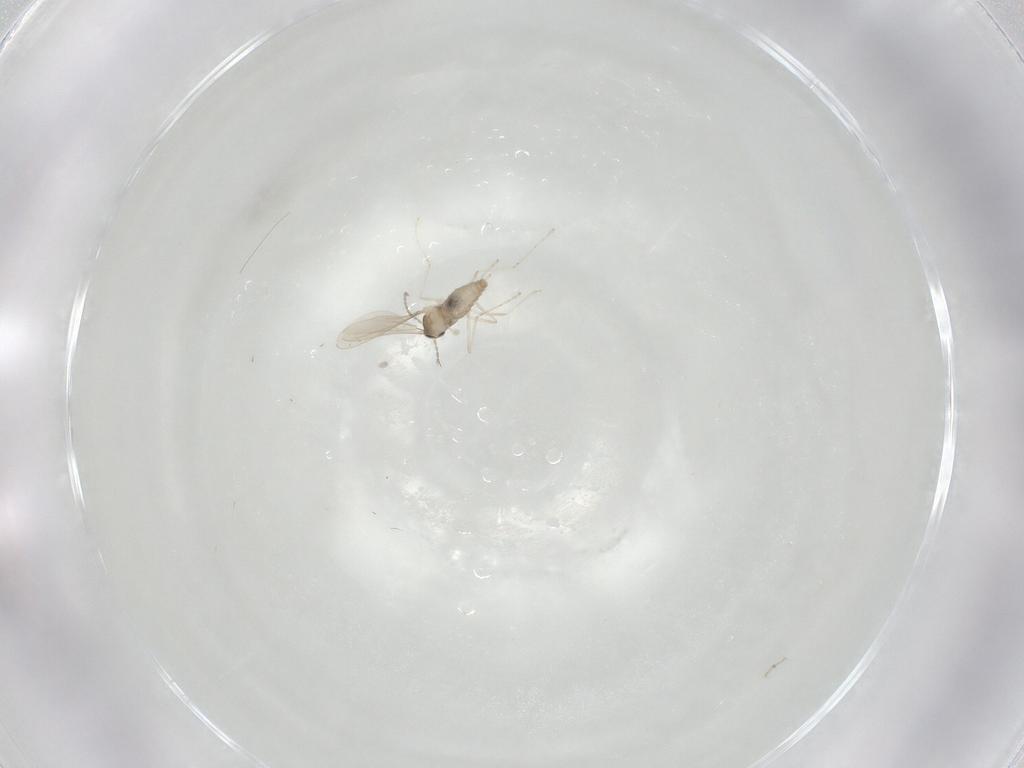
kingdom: Animalia
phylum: Arthropoda
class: Insecta
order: Diptera
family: Cecidomyiidae
